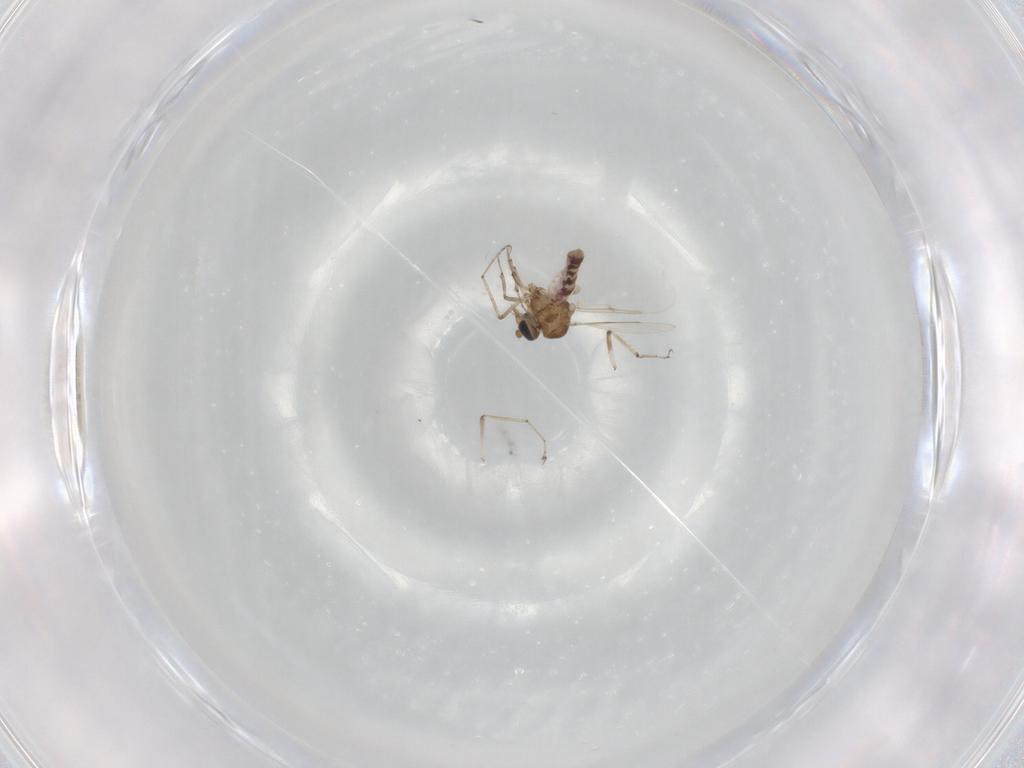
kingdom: Animalia
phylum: Arthropoda
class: Insecta
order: Diptera
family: Ceratopogonidae
